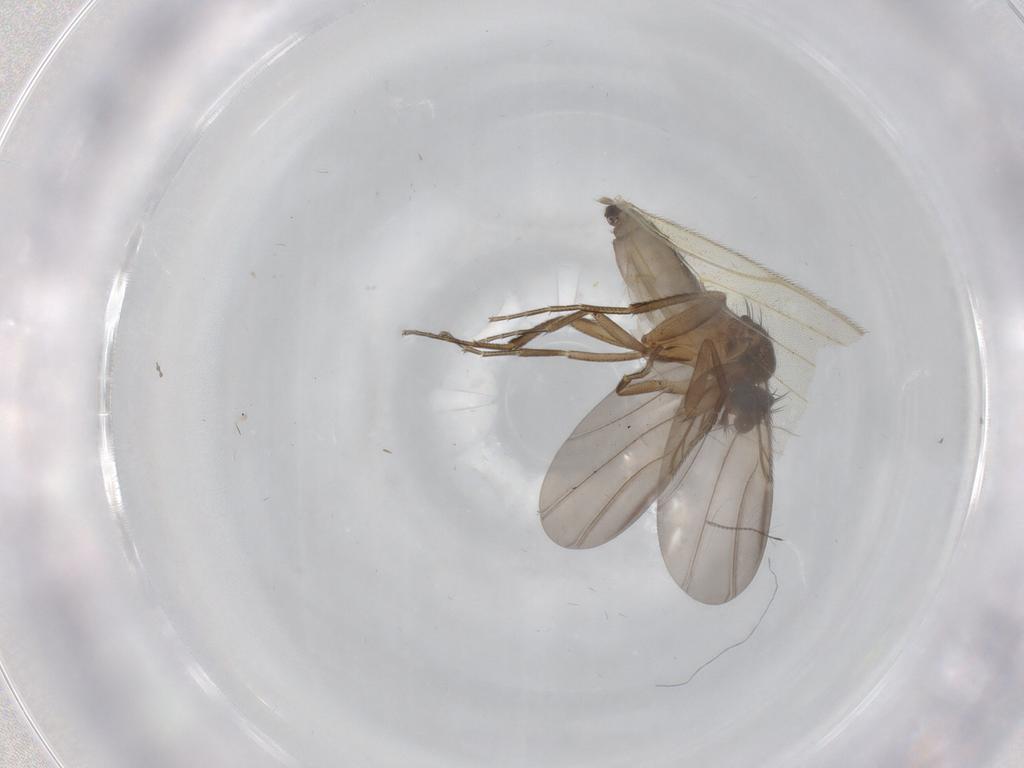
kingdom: Animalia
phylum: Arthropoda
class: Insecta
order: Diptera
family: Phoridae
